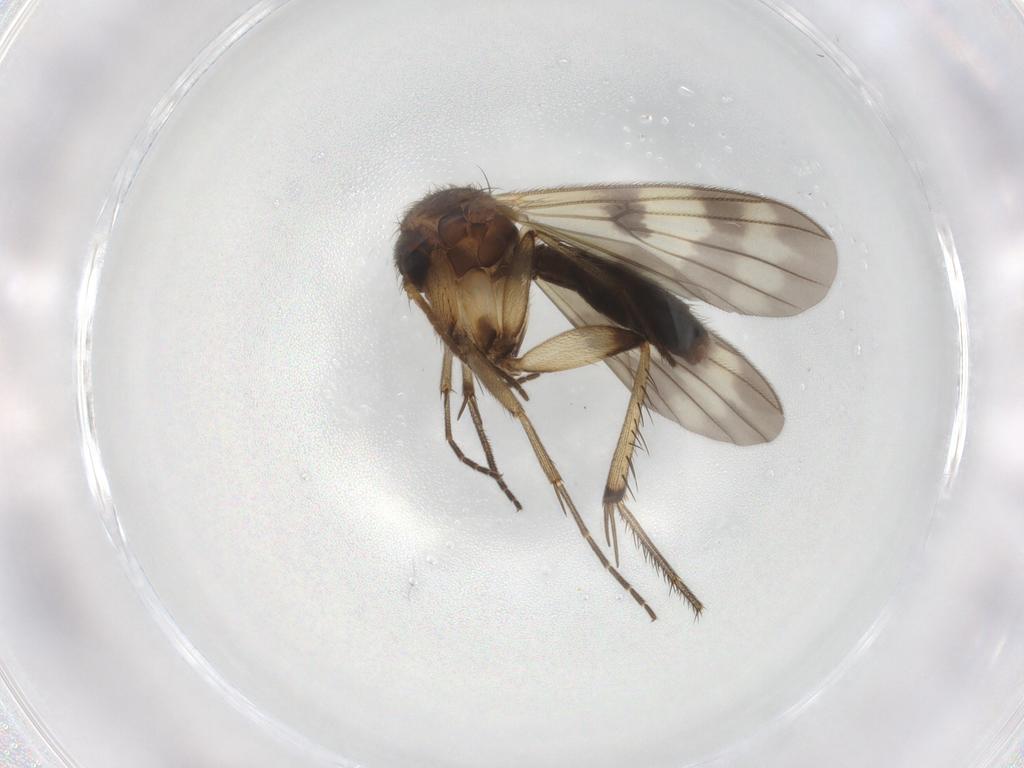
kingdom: Animalia
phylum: Arthropoda
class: Insecta
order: Diptera
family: Mycetophilidae
